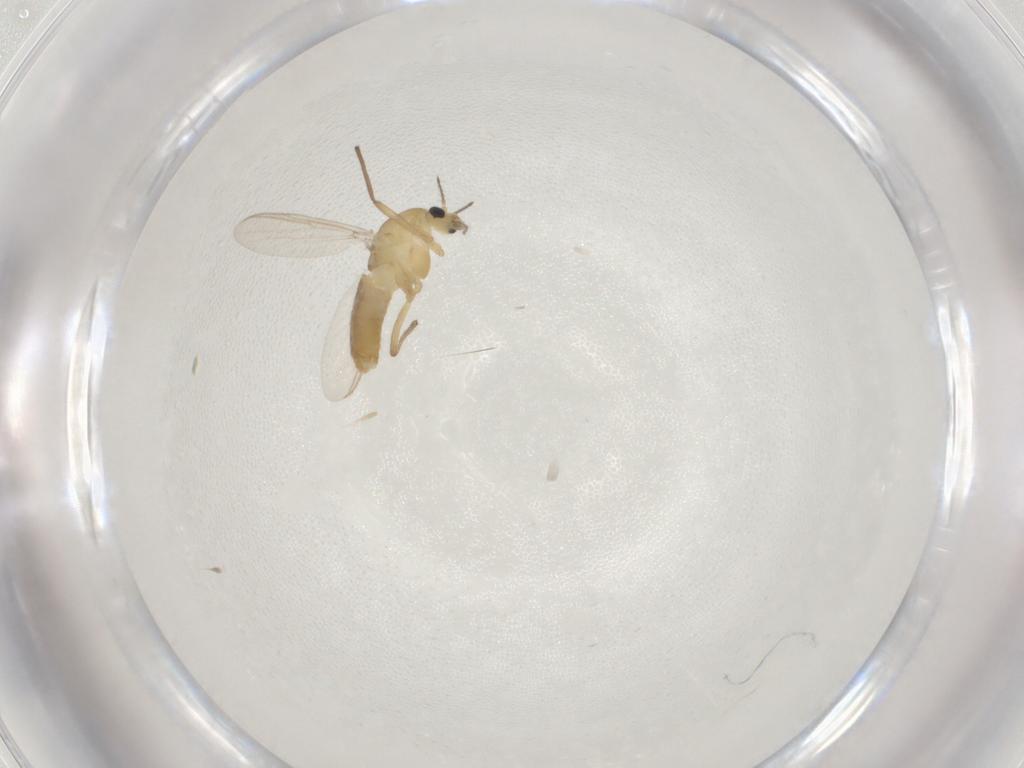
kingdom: Animalia
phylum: Arthropoda
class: Insecta
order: Diptera
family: Chironomidae
